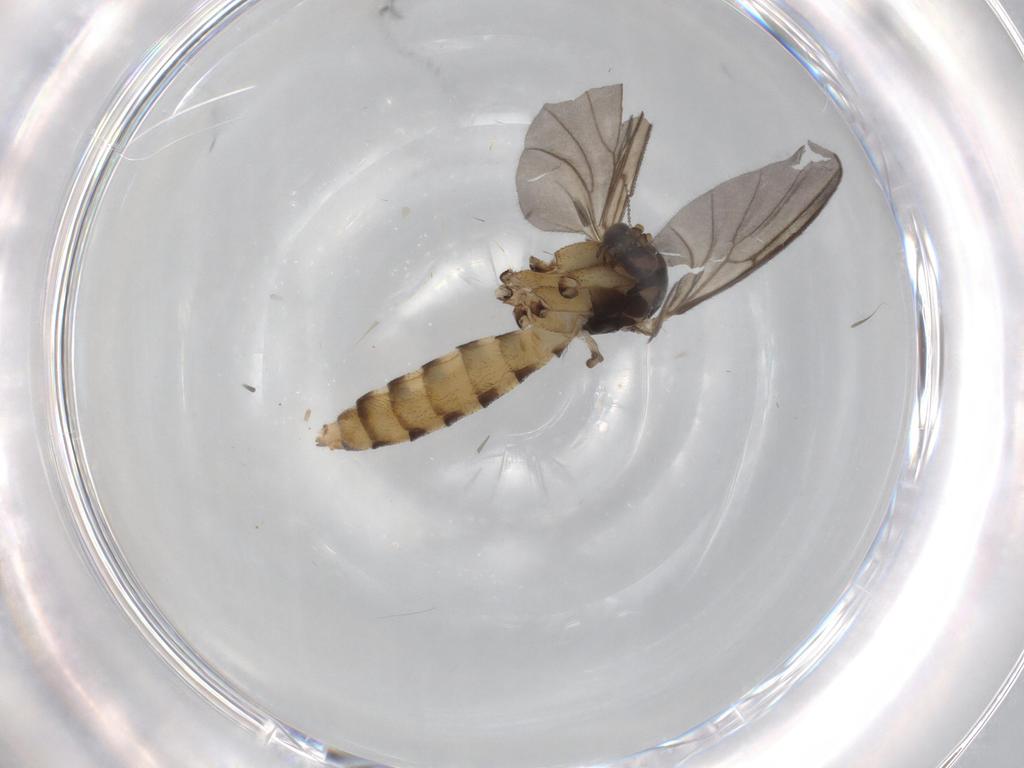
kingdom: Animalia
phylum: Arthropoda
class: Insecta
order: Diptera
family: Mycetophilidae
